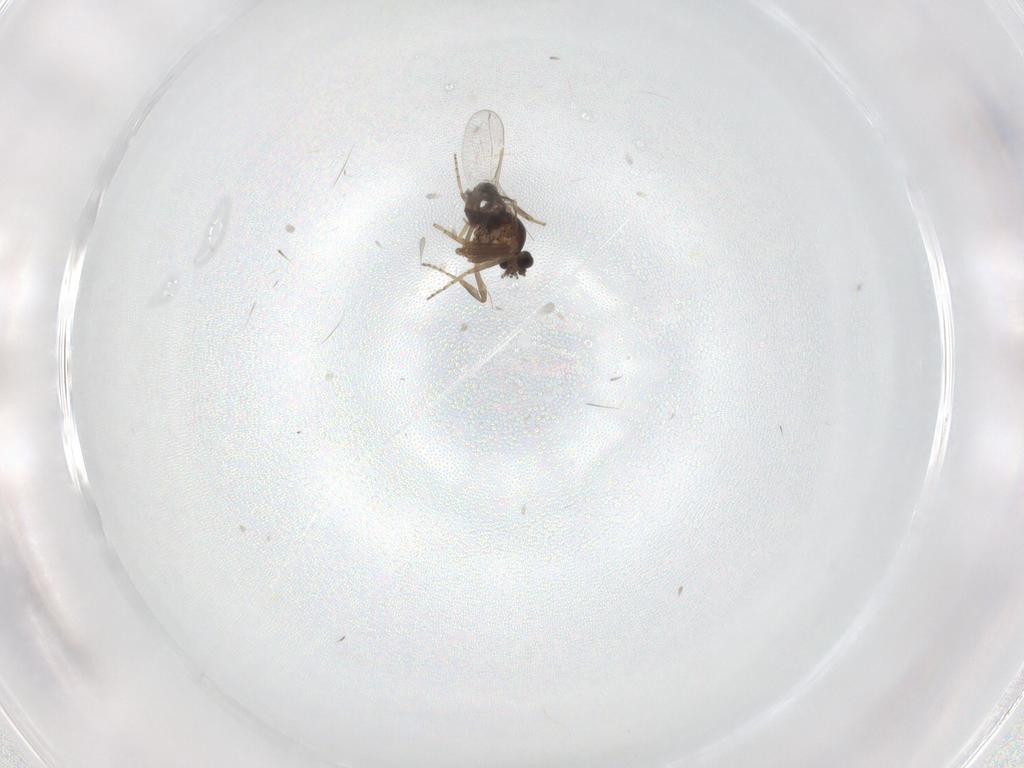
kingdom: Animalia
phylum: Arthropoda
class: Insecta
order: Diptera
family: Ceratopogonidae
